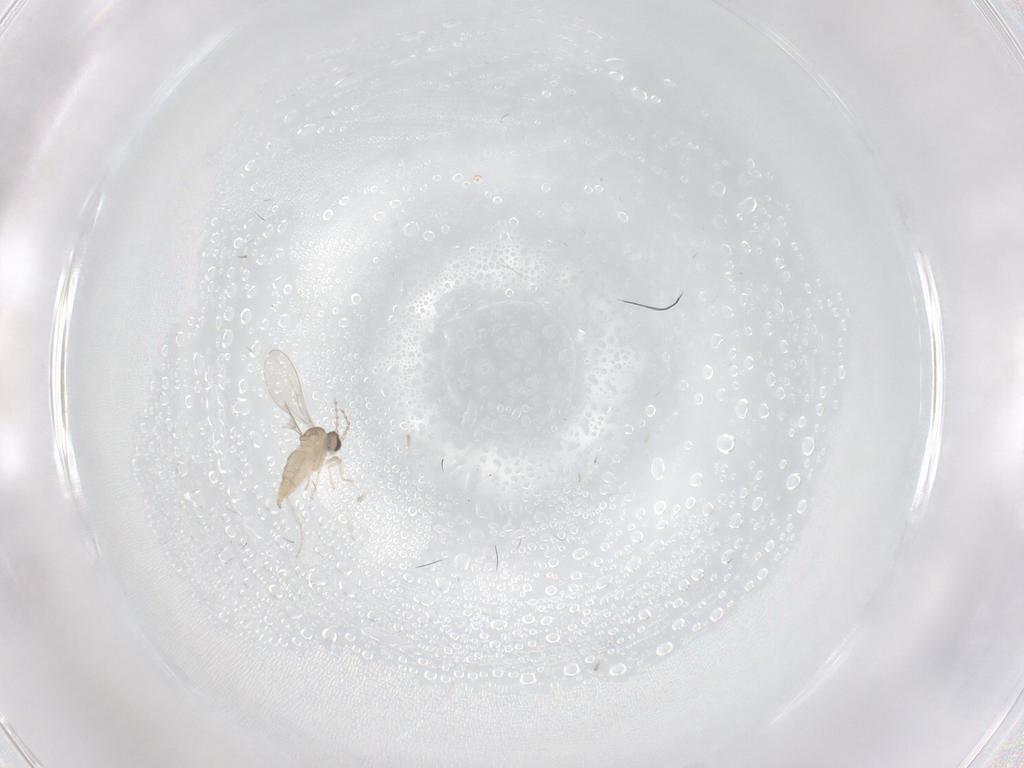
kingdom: Animalia
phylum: Arthropoda
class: Insecta
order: Diptera
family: Cecidomyiidae
